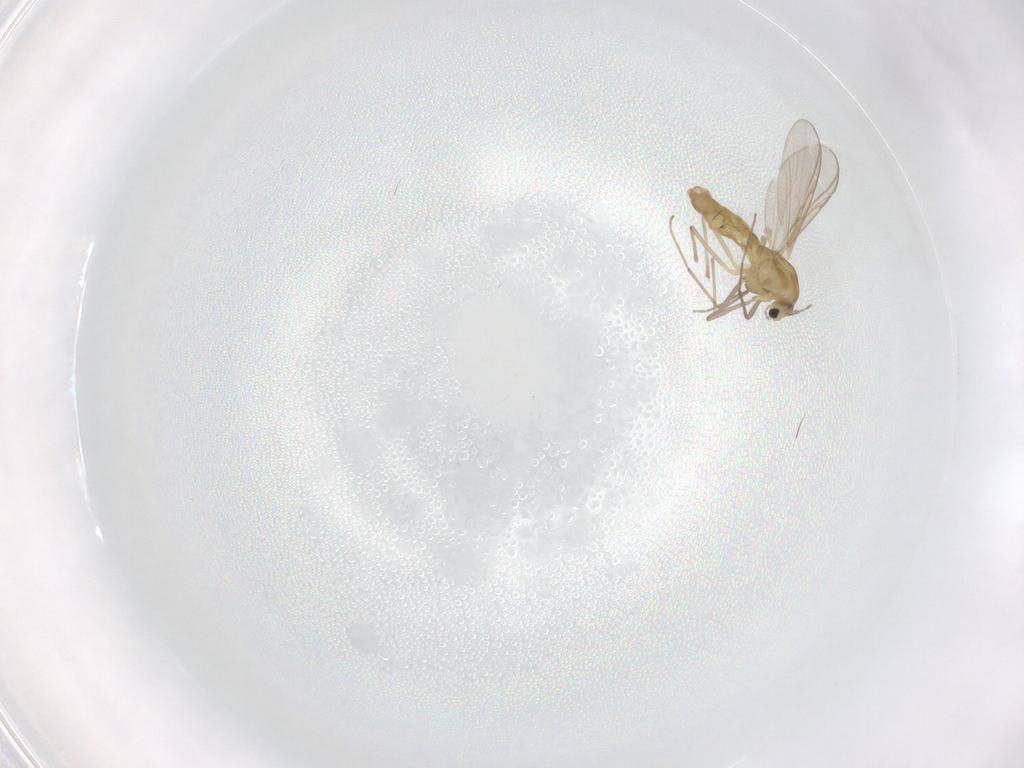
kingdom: Animalia
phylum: Arthropoda
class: Insecta
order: Diptera
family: Chironomidae
